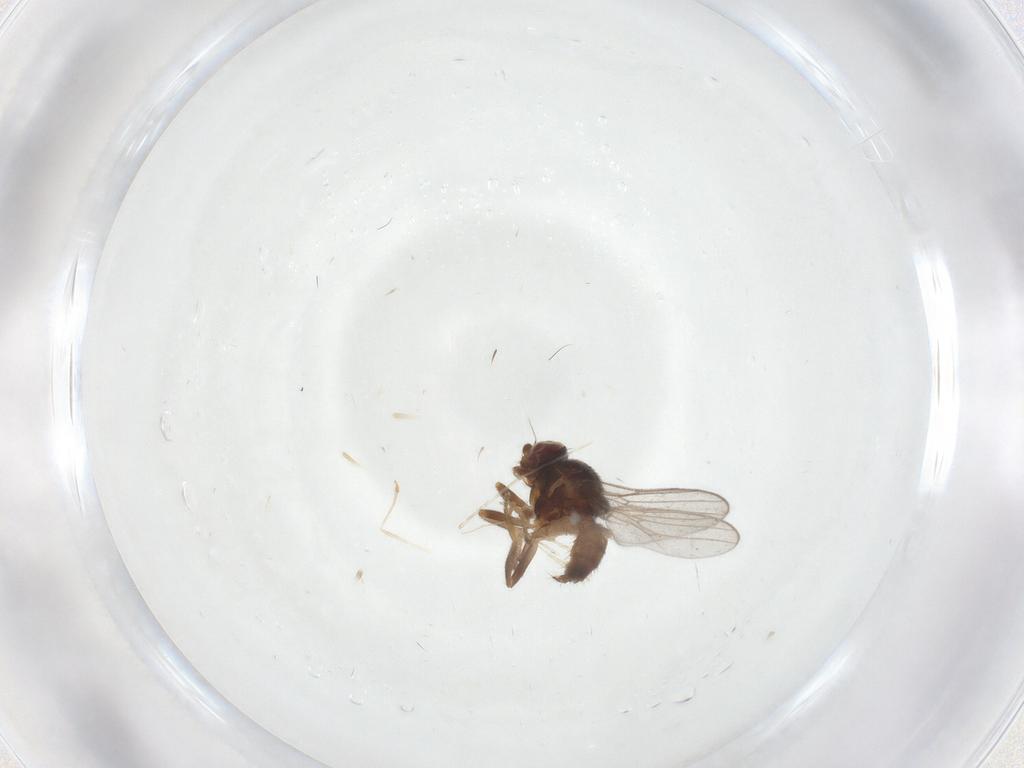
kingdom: Animalia
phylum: Arthropoda
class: Insecta
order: Diptera
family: Chloropidae
